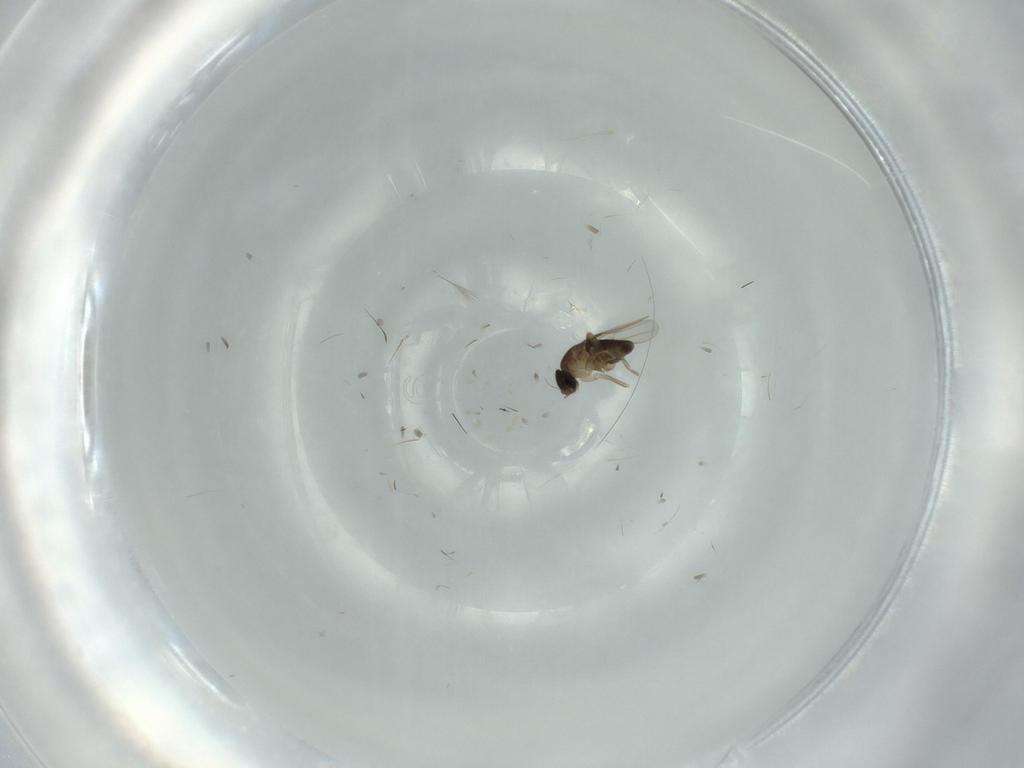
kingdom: Animalia
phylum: Arthropoda
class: Insecta
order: Diptera
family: Phoridae
